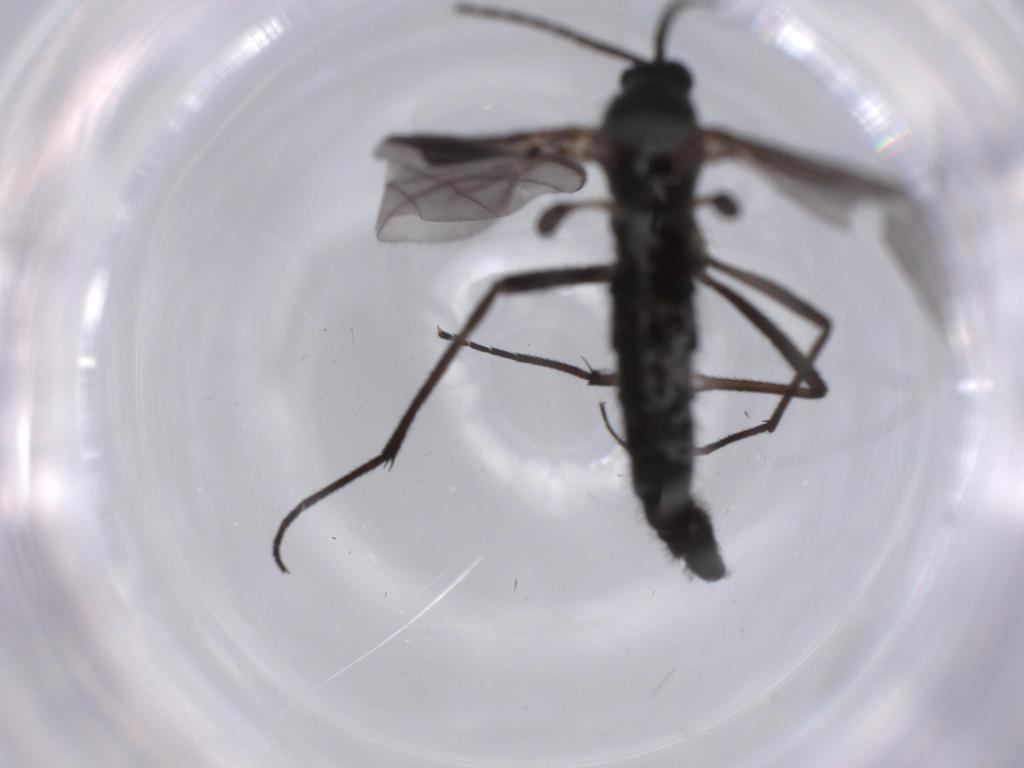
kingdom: Animalia
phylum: Arthropoda
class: Insecta
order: Diptera
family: Sciaridae
